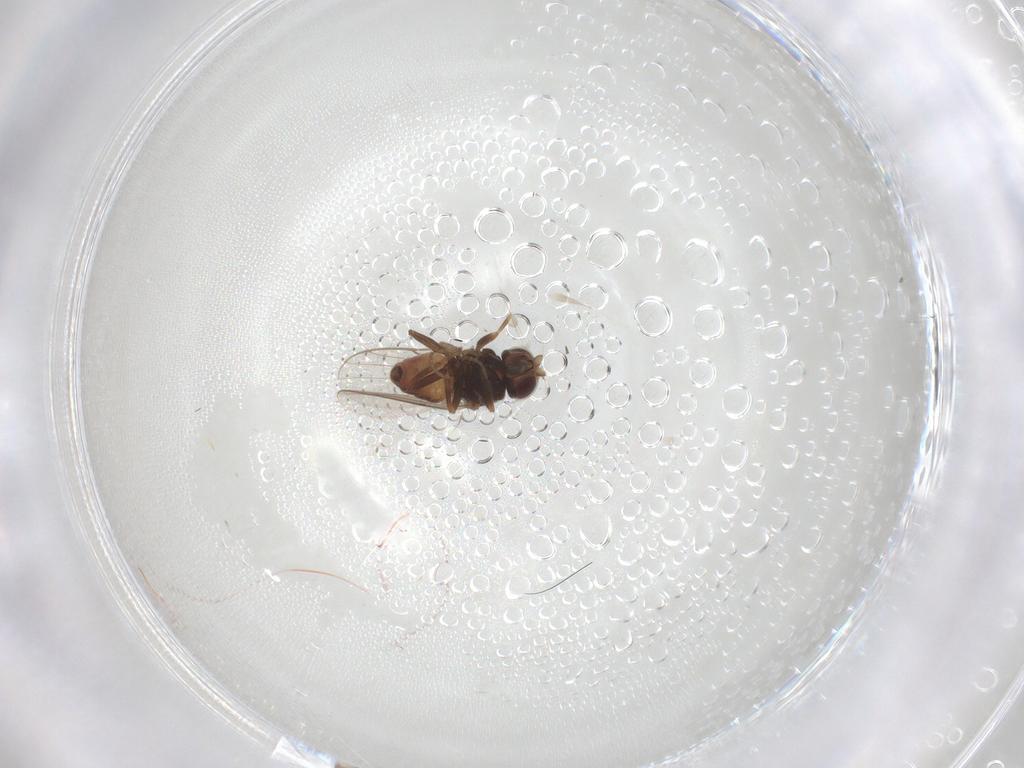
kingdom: Animalia
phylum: Arthropoda
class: Insecta
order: Diptera
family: Chloropidae
